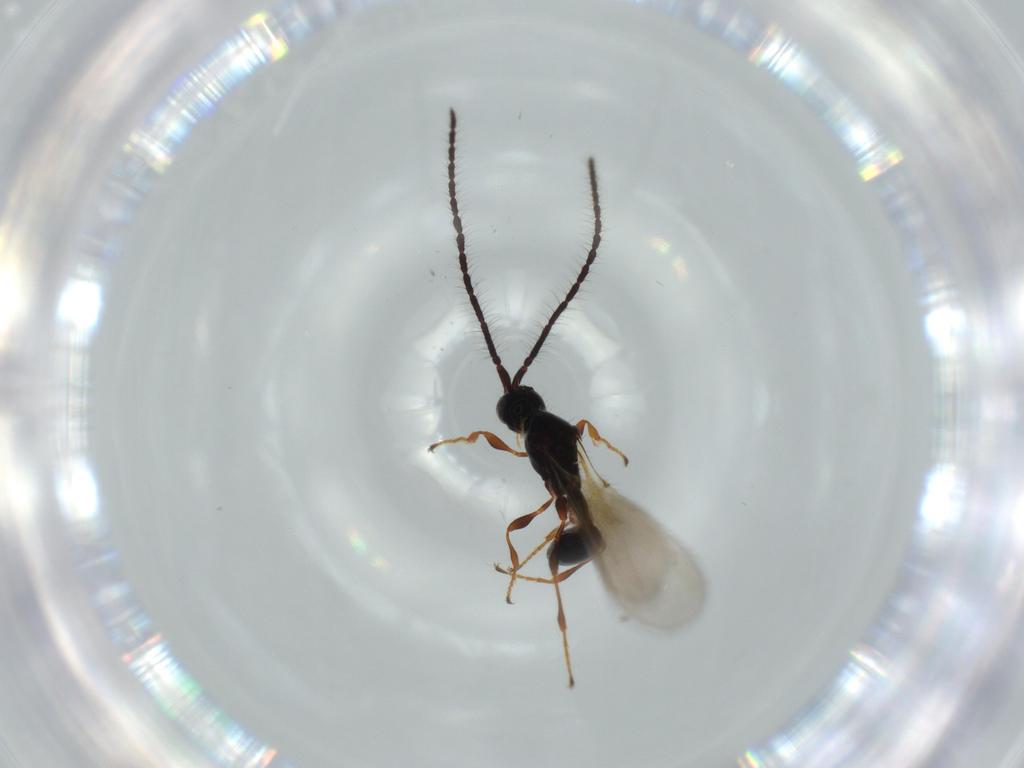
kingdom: Animalia
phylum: Arthropoda
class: Insecta
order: Hymenoptera
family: Diapriidae
